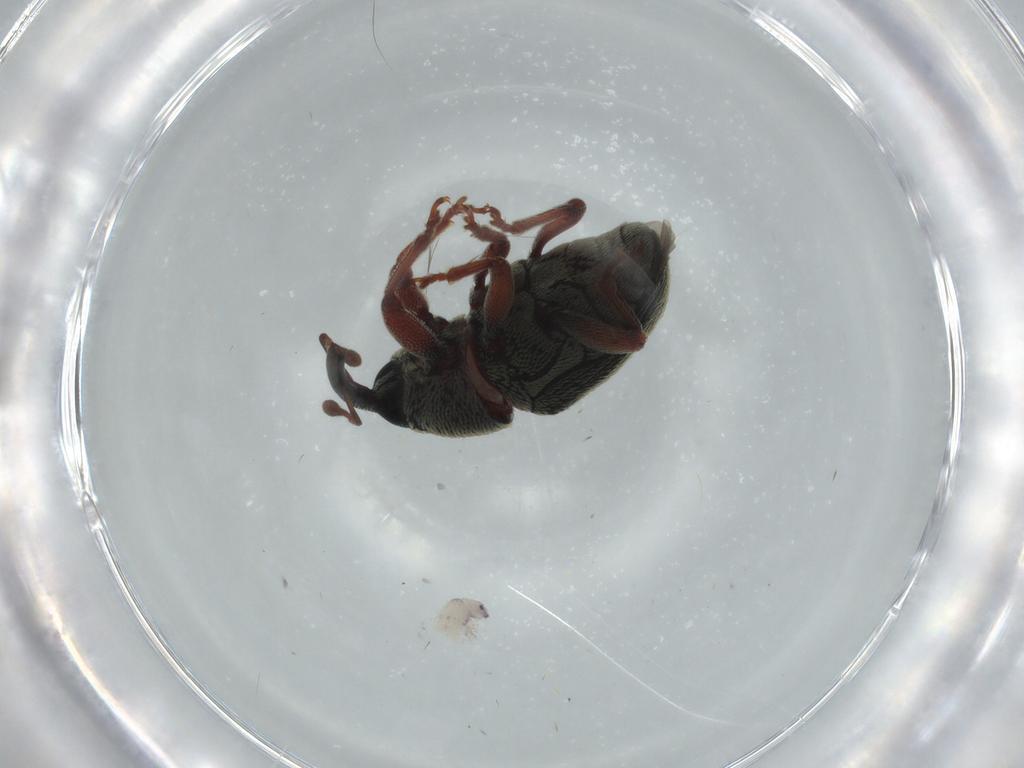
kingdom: Animalia
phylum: Arthropoda
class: Insecta
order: Coleoptera
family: Curculionidae
